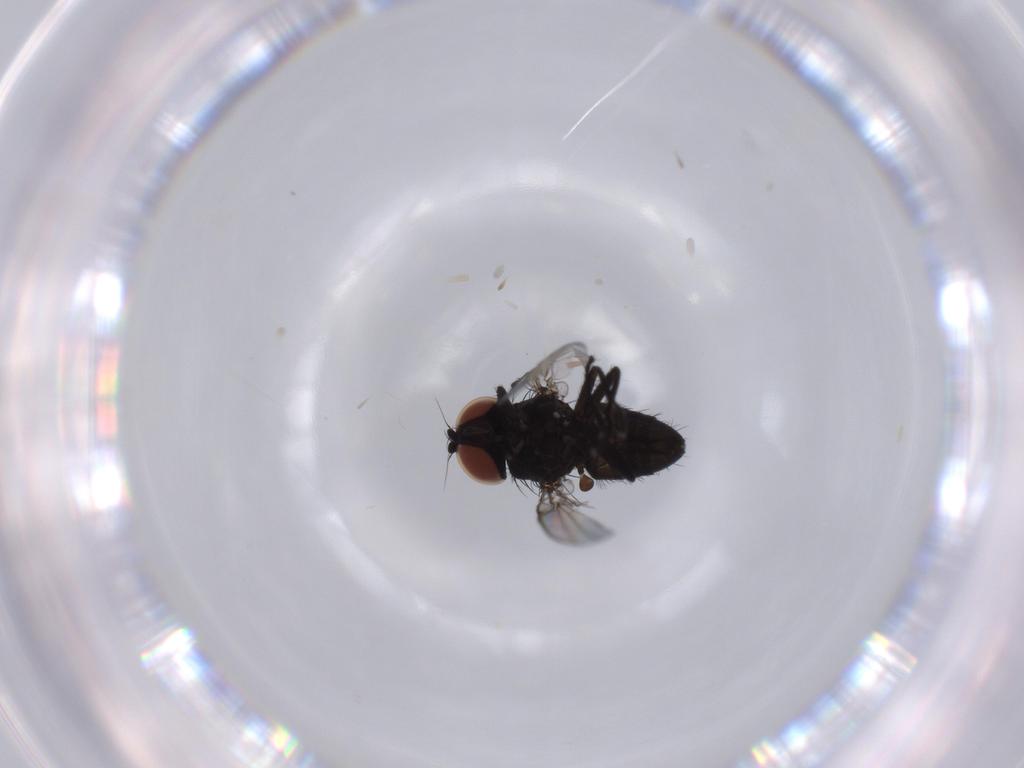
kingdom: Animalia
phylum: Arthropoda
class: Insecta
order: Diptera
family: Milichiidae
